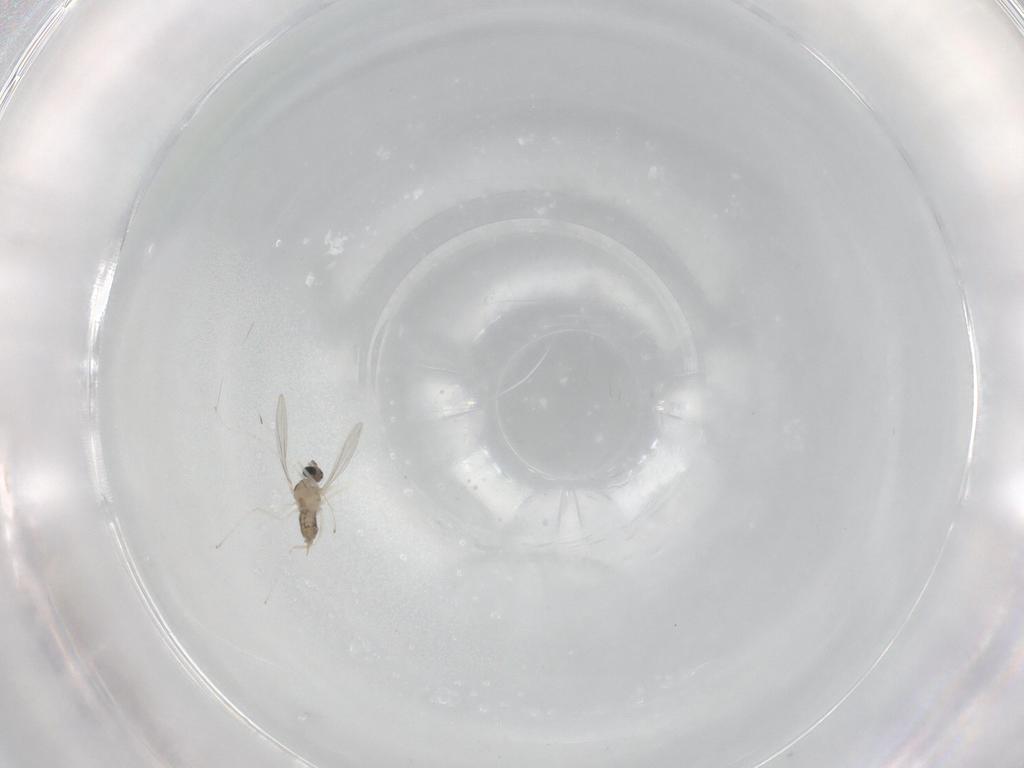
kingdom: Animalia
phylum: Arthropoda
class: Insecta
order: Diptera
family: Cecidomyiidae
